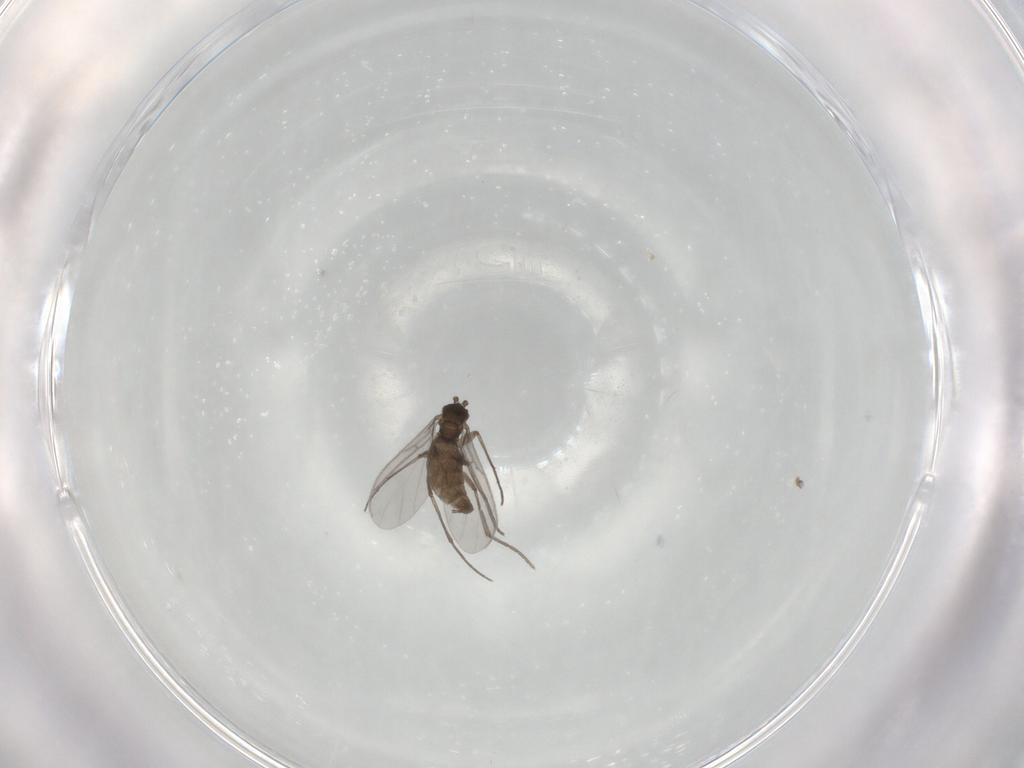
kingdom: Animalia
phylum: Arthropoda
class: Insecta
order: Diptera
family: Sciaridae
